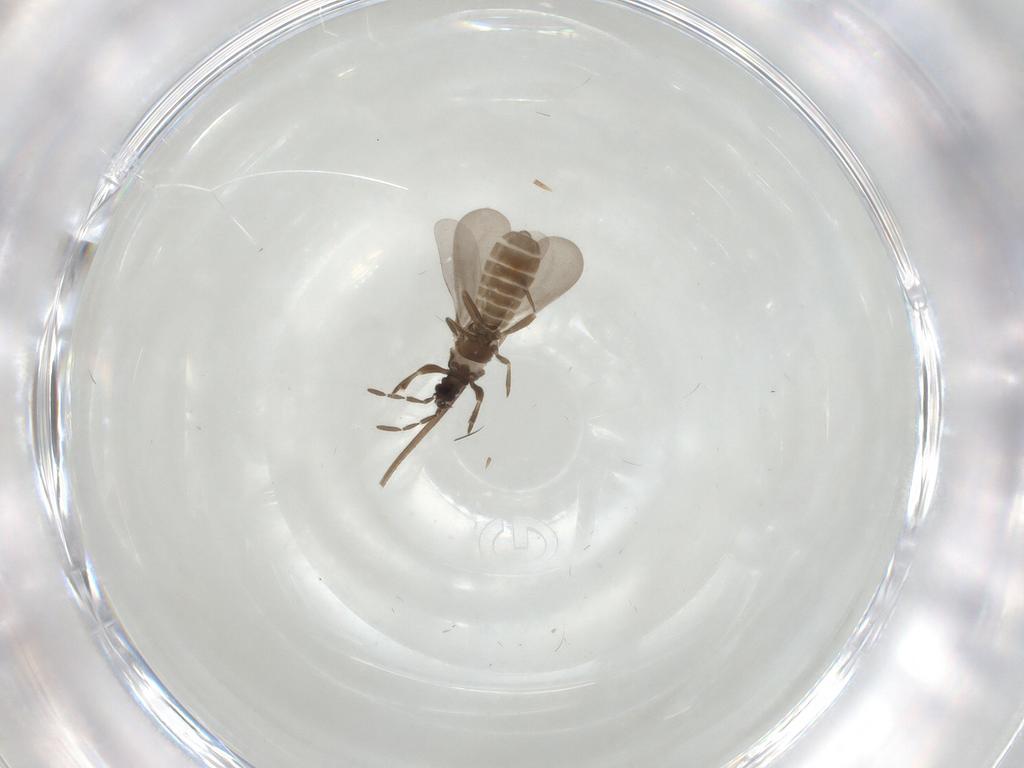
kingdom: Animalia
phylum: Arthropoda
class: Insecta
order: Hemiptera
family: Enicocephalidae
